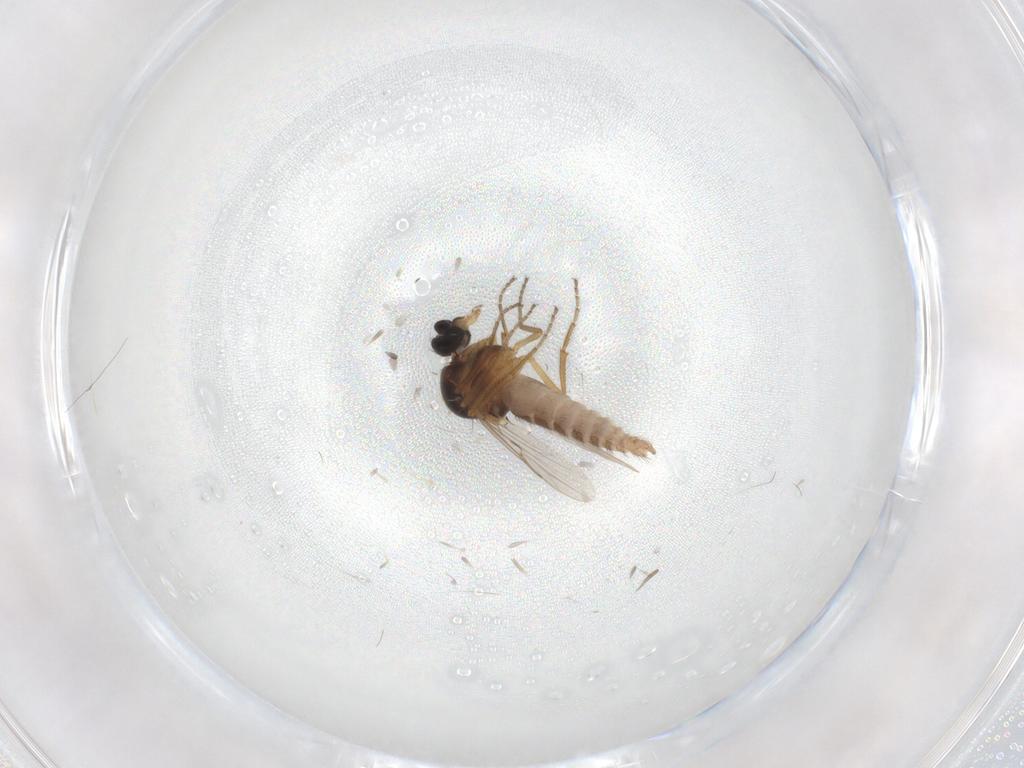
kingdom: Animalia
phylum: Arthropoda
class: Insecta
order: Diptera
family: Ceratopogonidae
